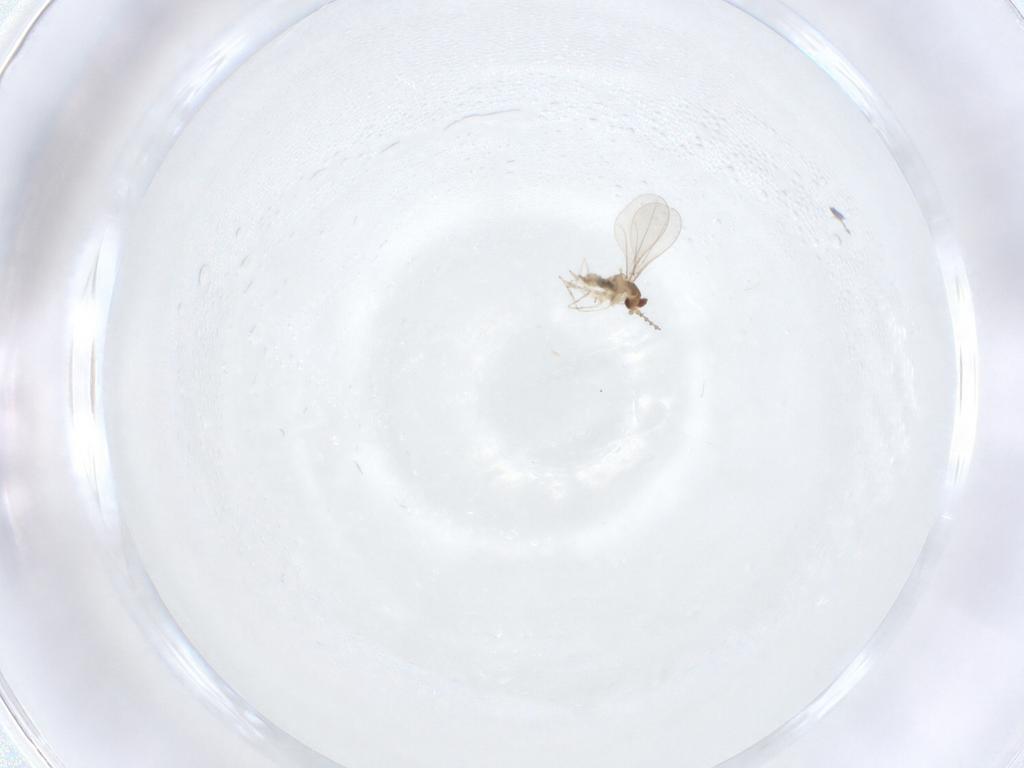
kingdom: Animalia
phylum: Arthropoda
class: Insecta
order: Diptera
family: Cecidomyiidae
